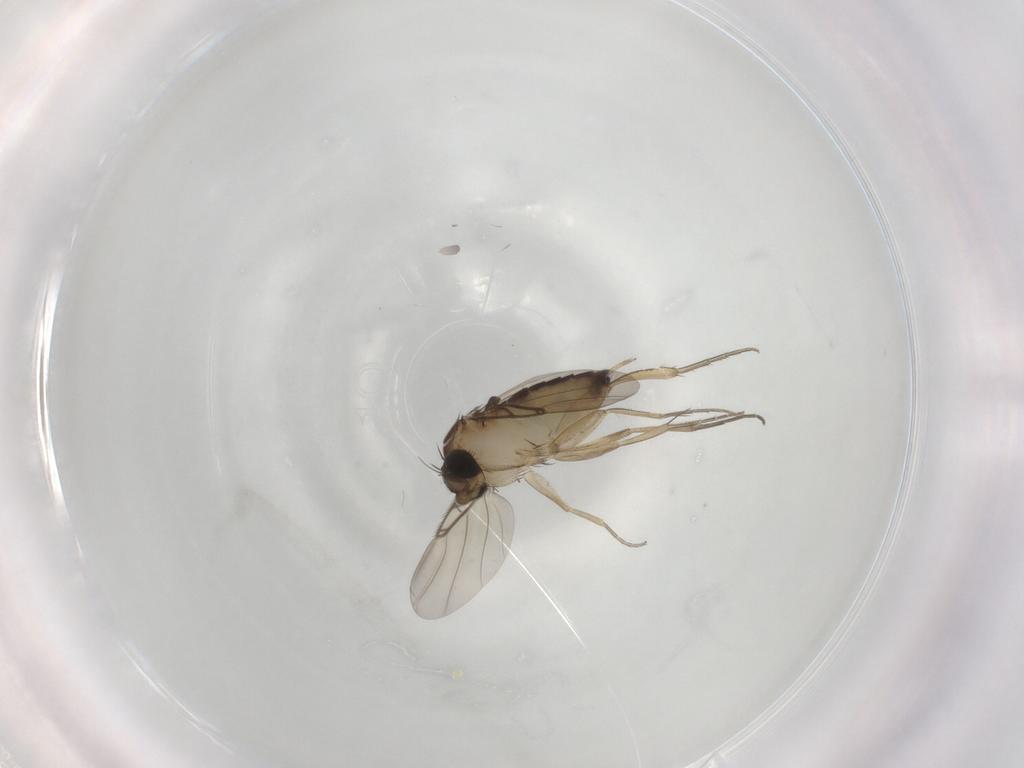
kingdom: Animalia
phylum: Arthropoda
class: Insecta
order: Diptera
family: Phoridae
